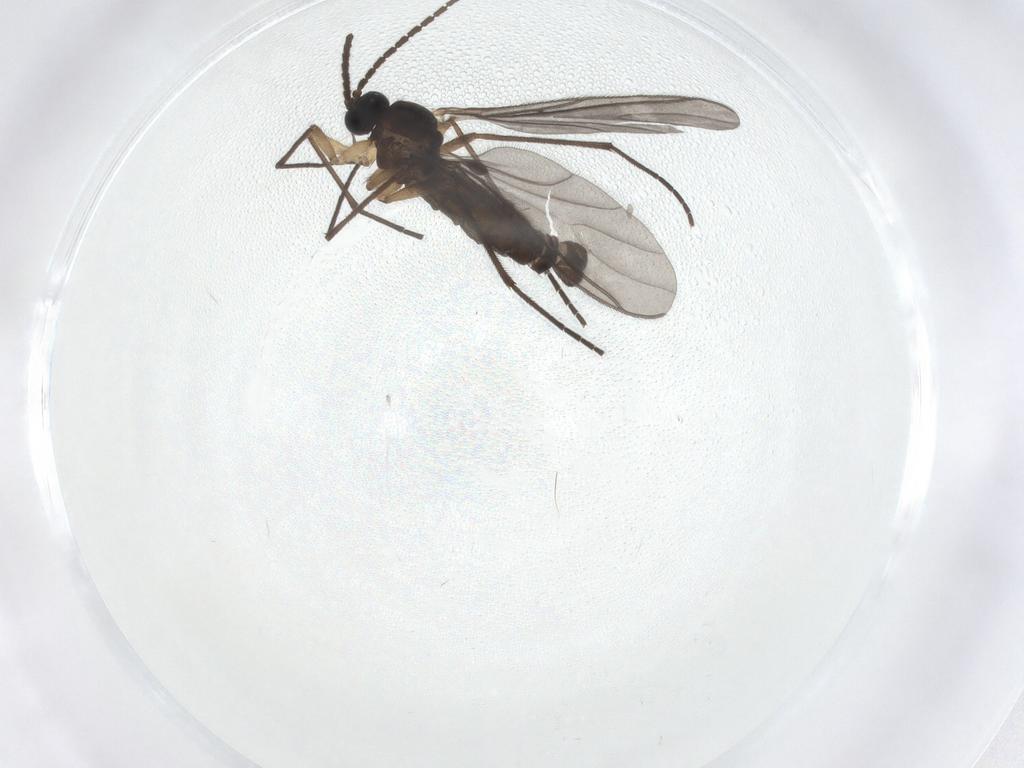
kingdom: Animalia
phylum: Arthropoda
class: Insecta
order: Diptera
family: Sciaridae
